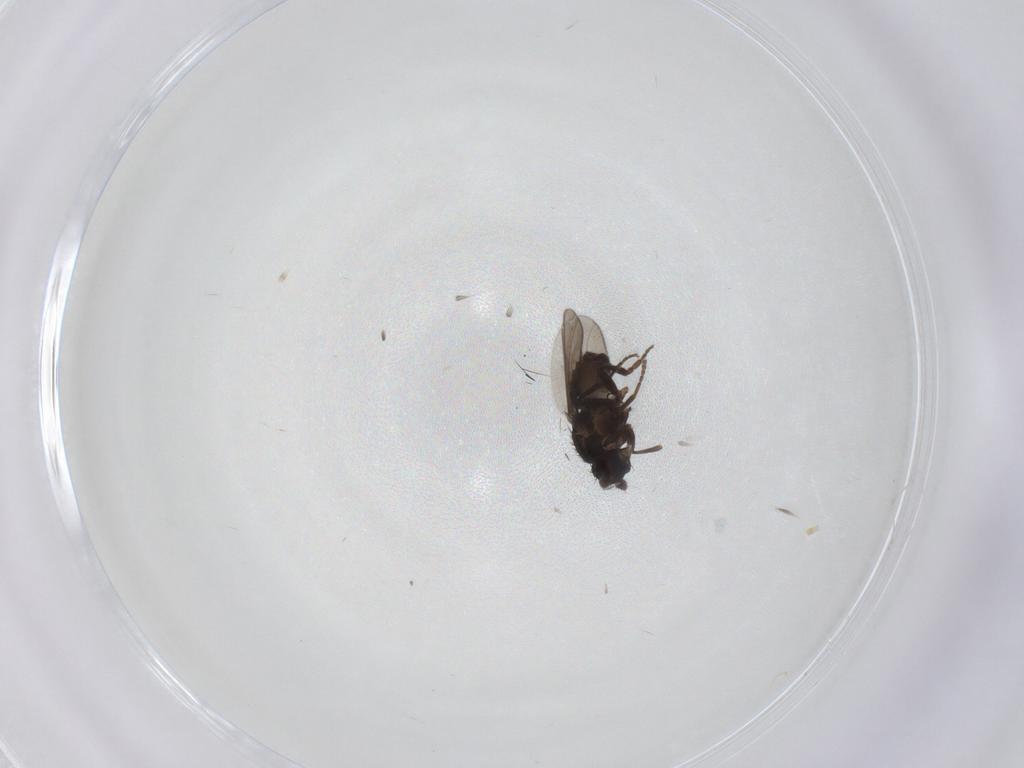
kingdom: Animalia
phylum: Arthropoda
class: Insecta
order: Diptera
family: Sphaeroceridae
